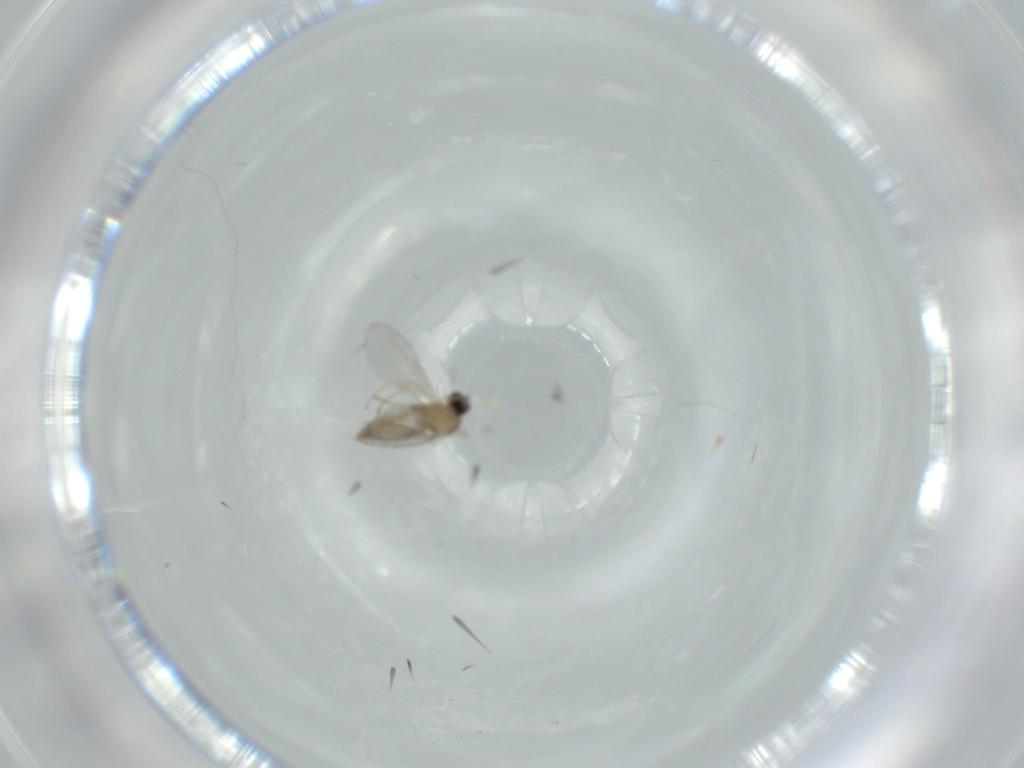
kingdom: Animalia
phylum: Arthropoda
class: Insecta
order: Diptera
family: Cecidomyiidae
